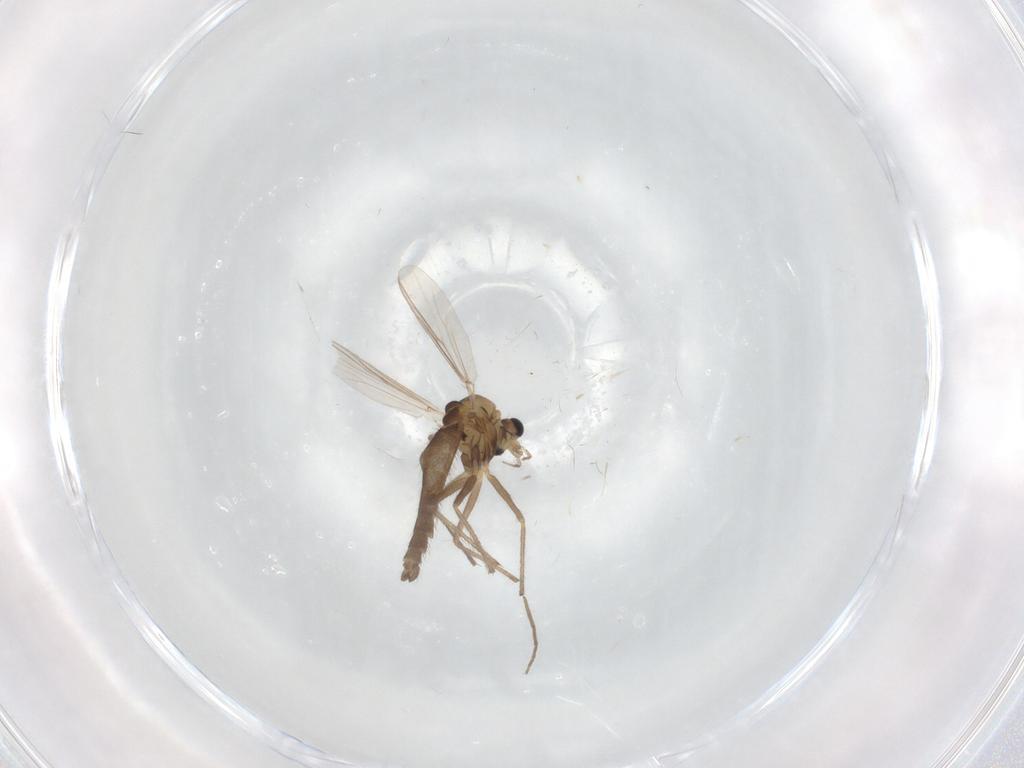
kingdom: Animalia
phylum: Arthropoda
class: Insecta
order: Diptera
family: Chironomidae
